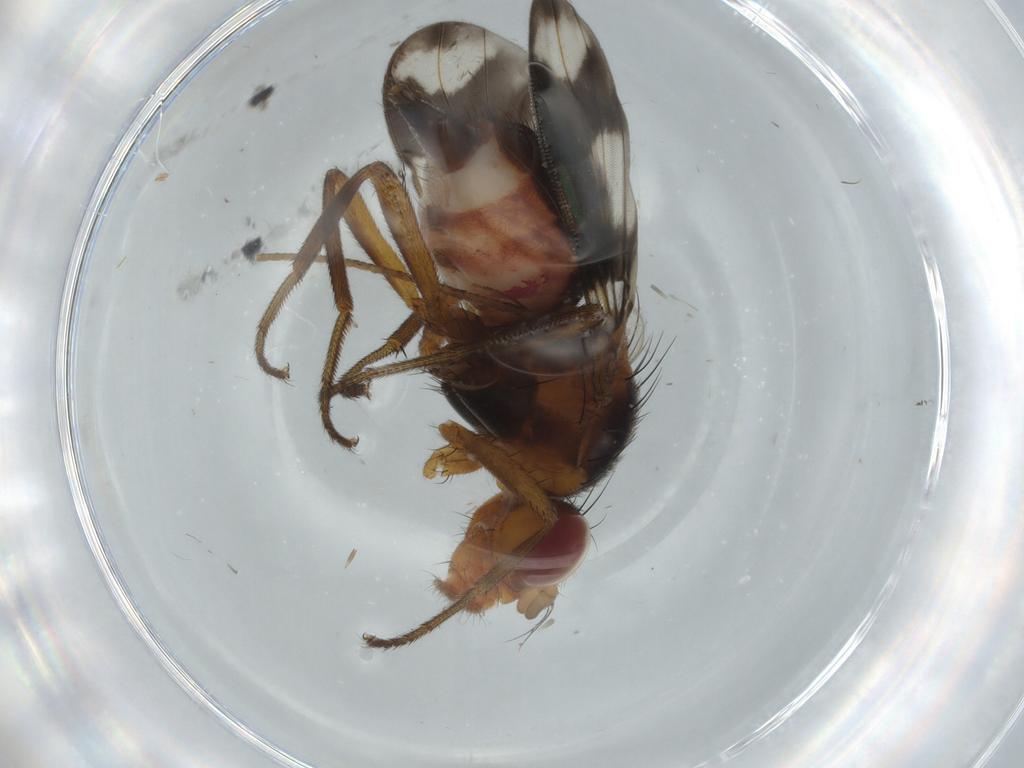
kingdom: Animalia
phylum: Arthropoda
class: Insecta
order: Diptera
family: Richardiidae
